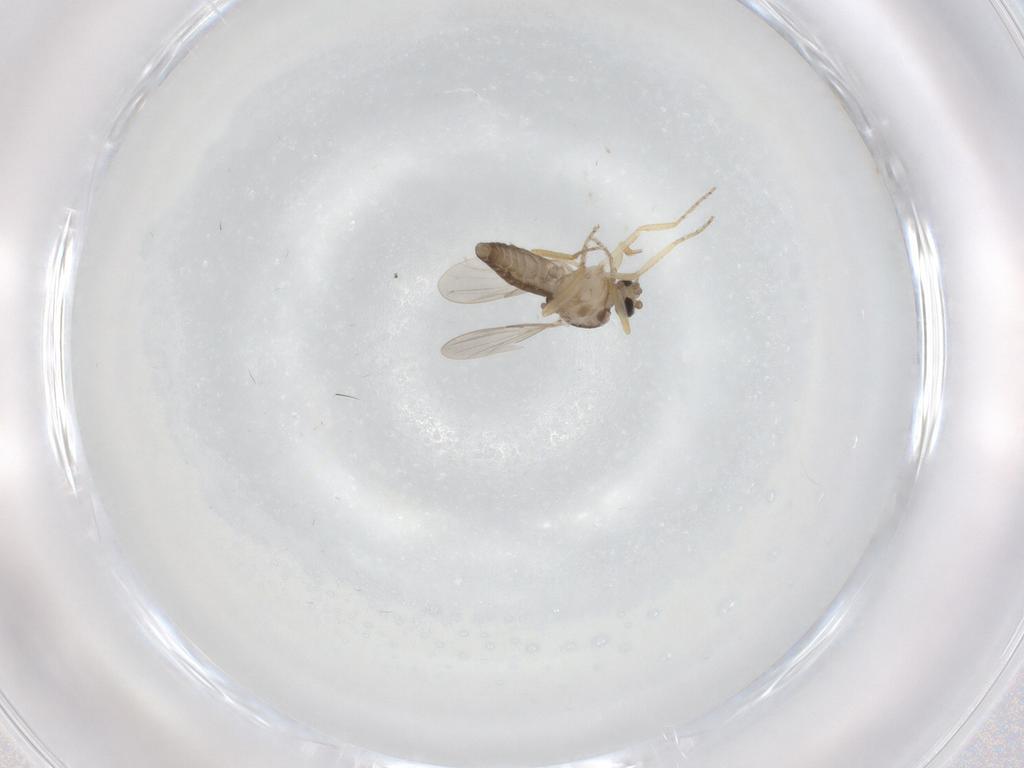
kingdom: Animalia
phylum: Arthropoda
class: Insecta
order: Diptera
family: Ceratopogonidae
